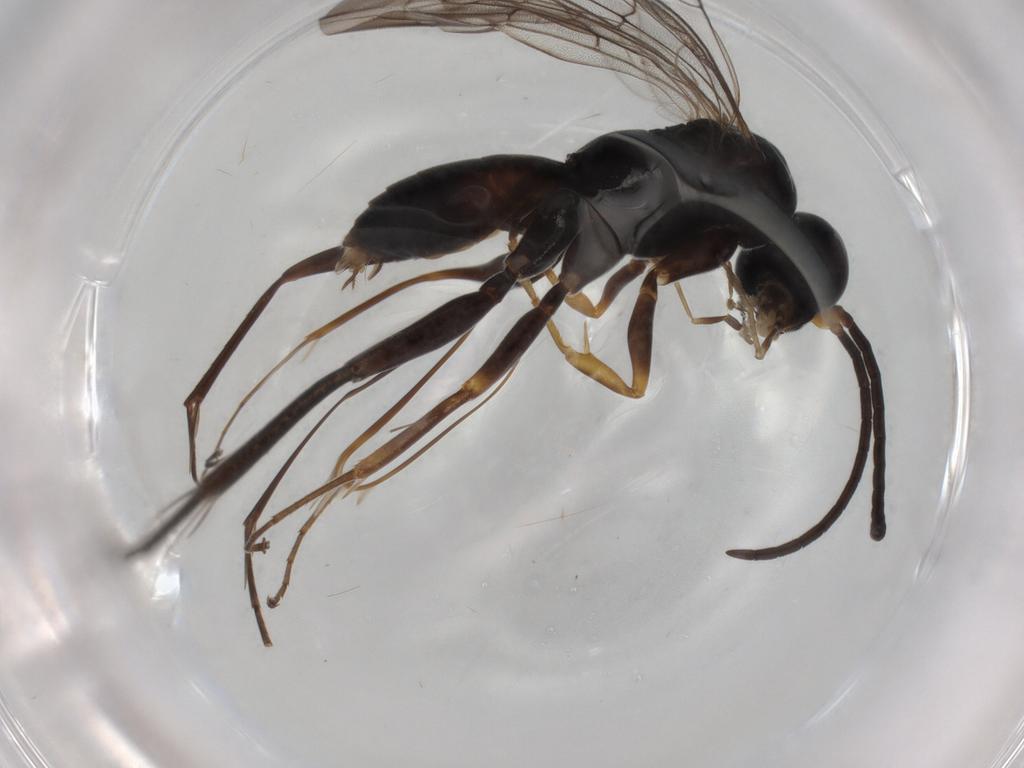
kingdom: Animalia
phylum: Arthropoda
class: Insecta
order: Hymenoptera
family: Pompilidae
